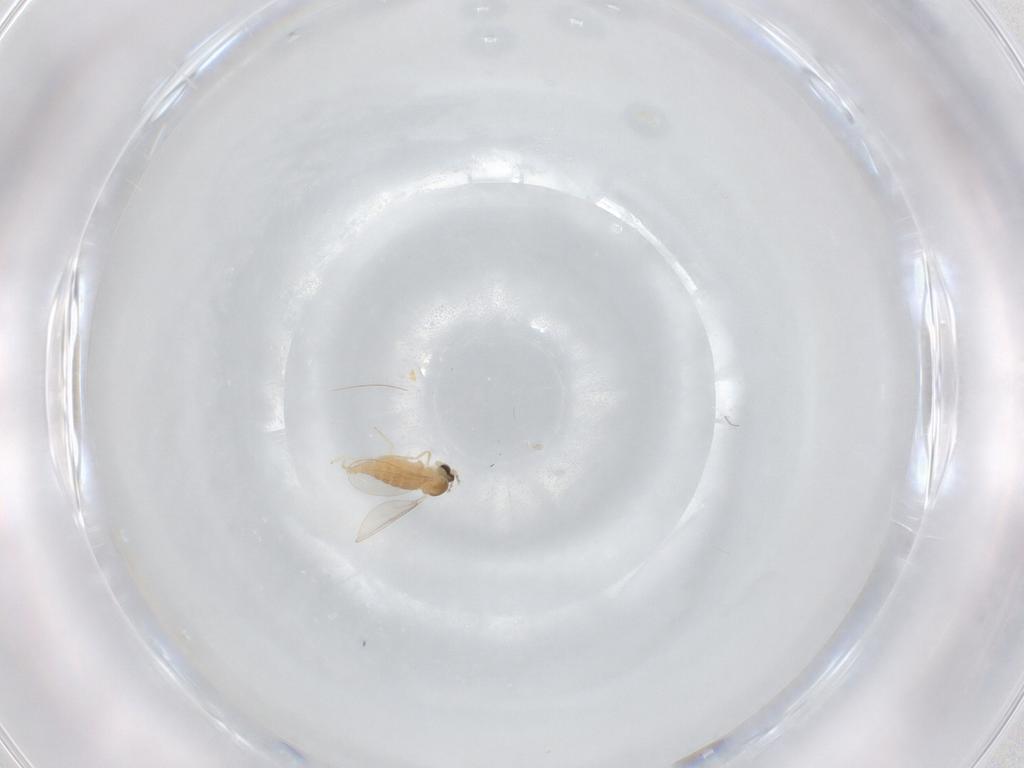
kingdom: Animalia
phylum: Arthropoda
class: Insecta
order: Diptera
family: Cecidomyiidae
